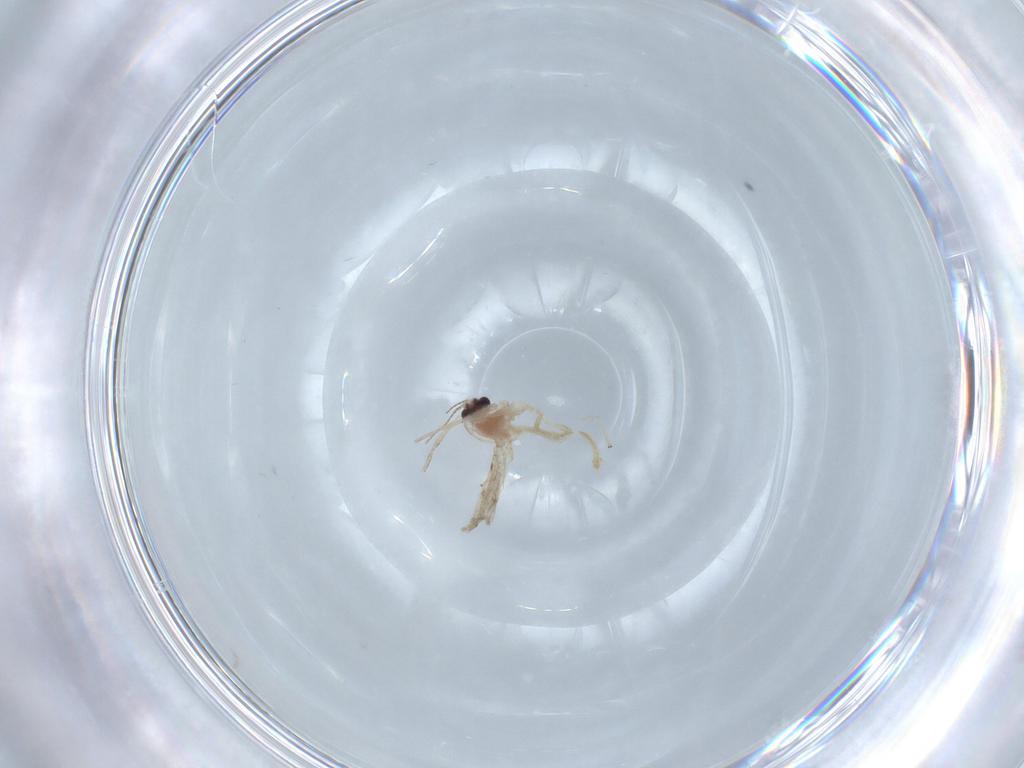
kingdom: Animalia
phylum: Arthropoda
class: Insecta
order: Diptera
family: Chironomidae
